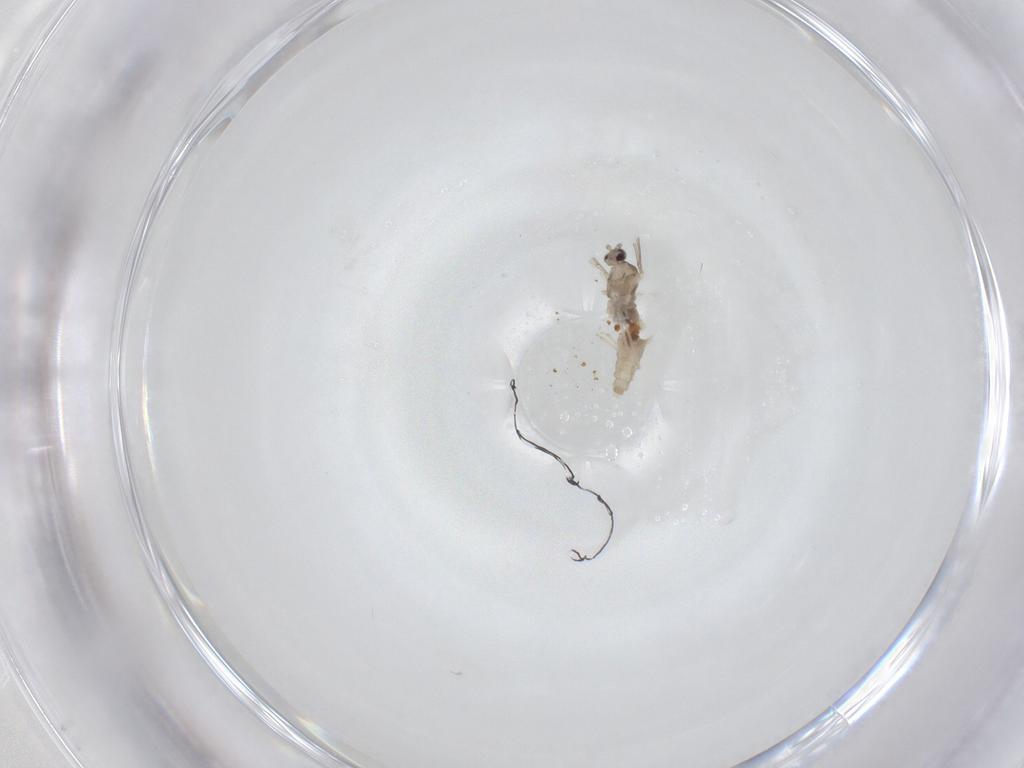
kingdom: Animalia
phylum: Arthropoda
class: Insecta
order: Diptera
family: Cecidomyiidae
